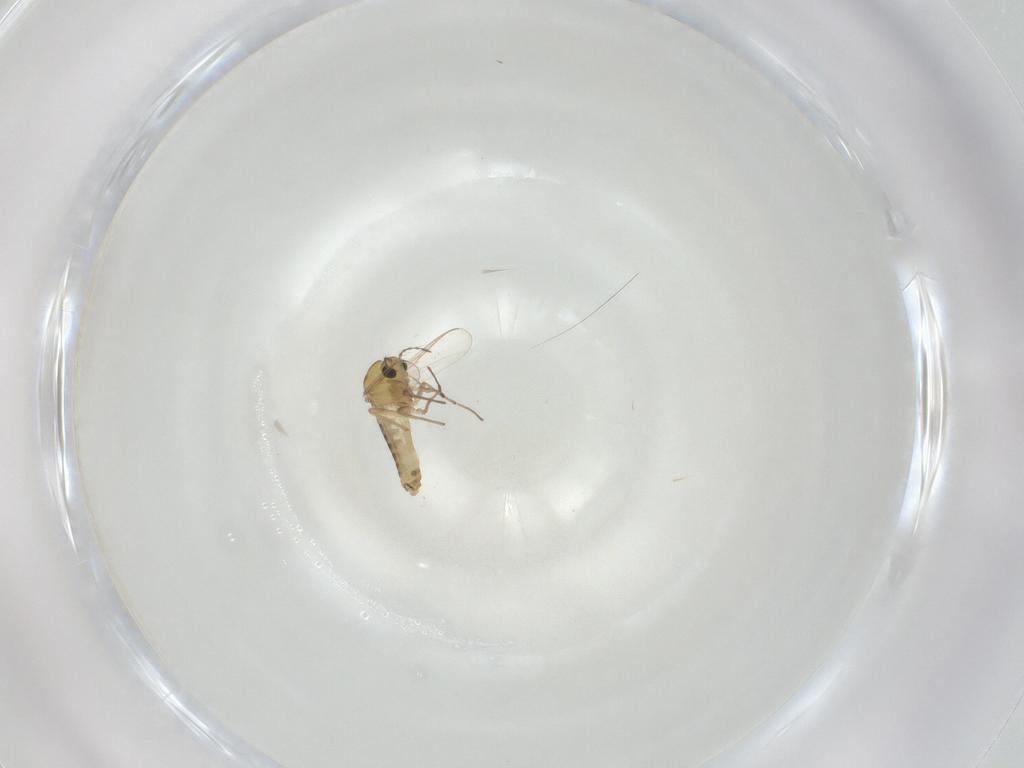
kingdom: Animalia
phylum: Arthropoda
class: Insecta
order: Diptera
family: Chironomidae
